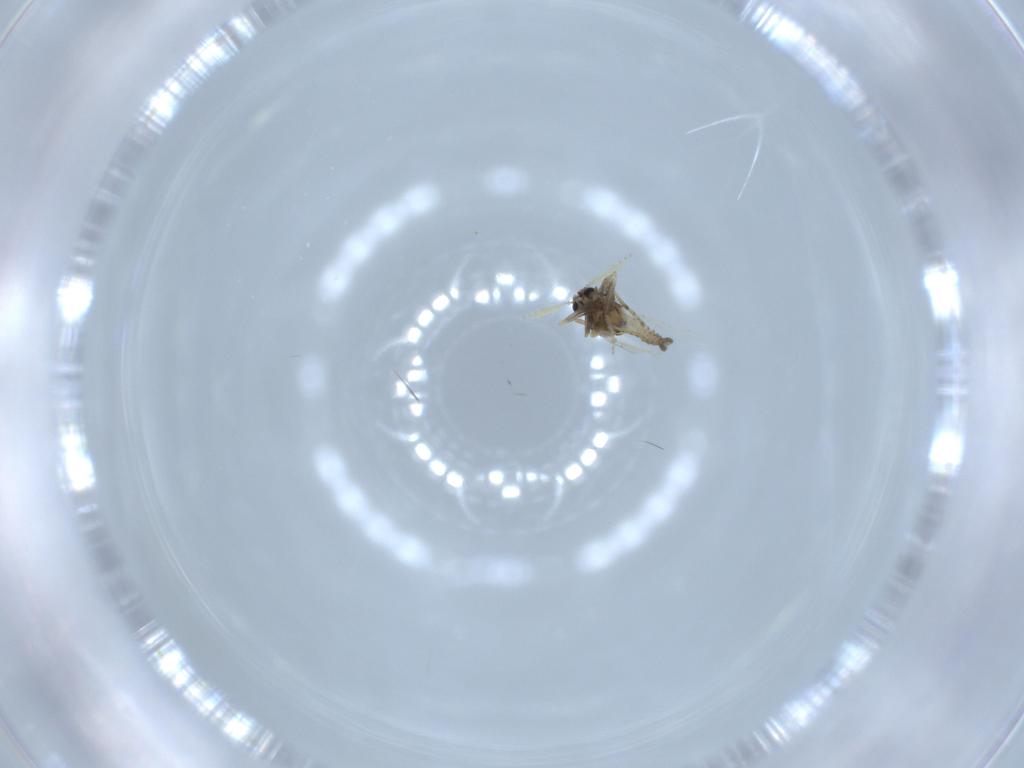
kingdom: Animalia
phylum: Arthropoda
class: Insecta
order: Diptera
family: Ceratopogonidae
